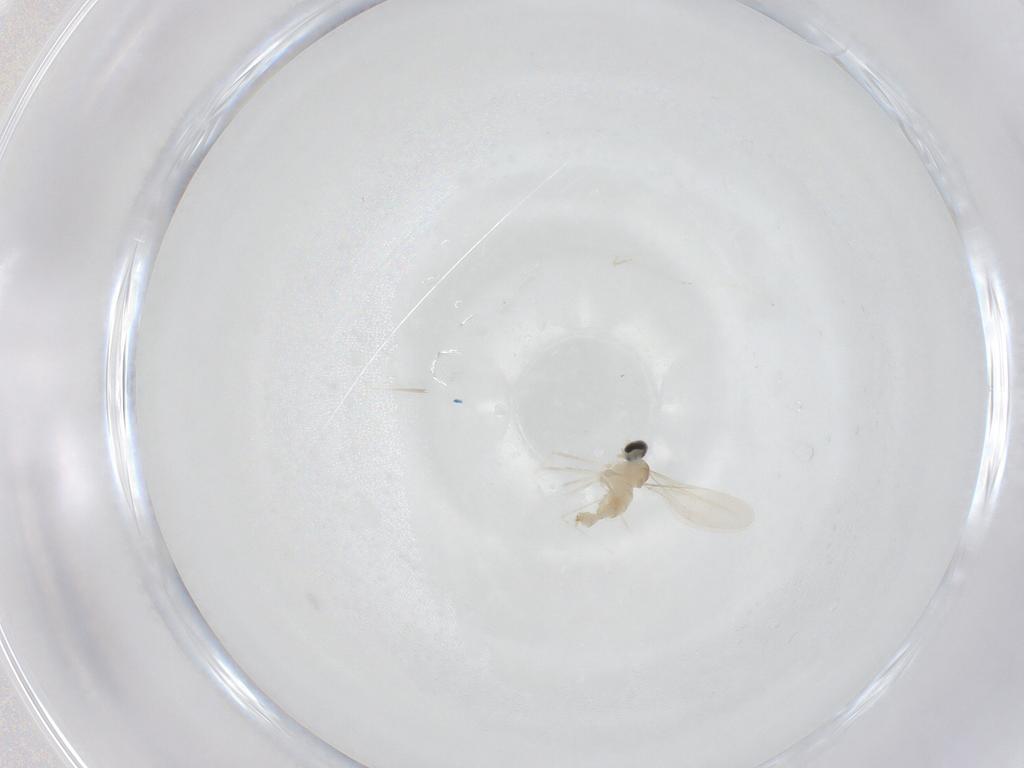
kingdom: Animalia
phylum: Arthropoda
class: Insecta
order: Diptera
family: Cecidomyiidae
